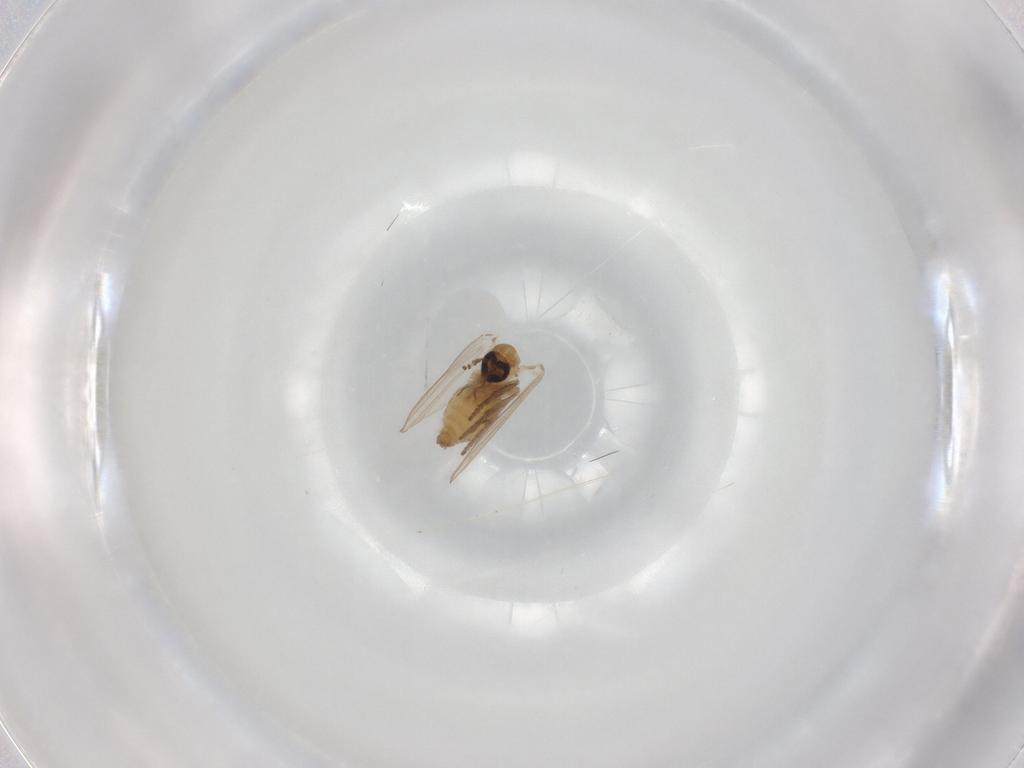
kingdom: Animalia
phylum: Arthropoda
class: Insecta
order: Diptera
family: Psychodidae
